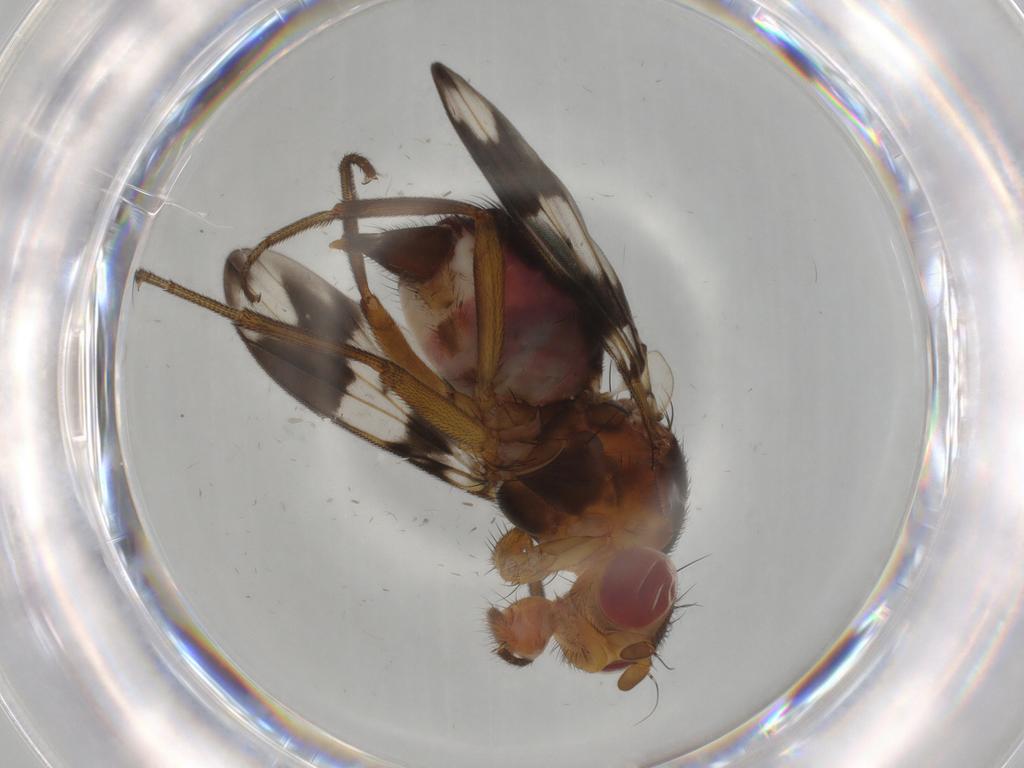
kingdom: Animalia
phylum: Arthropoda
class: Insecta
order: Diptera
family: Richardiidae
